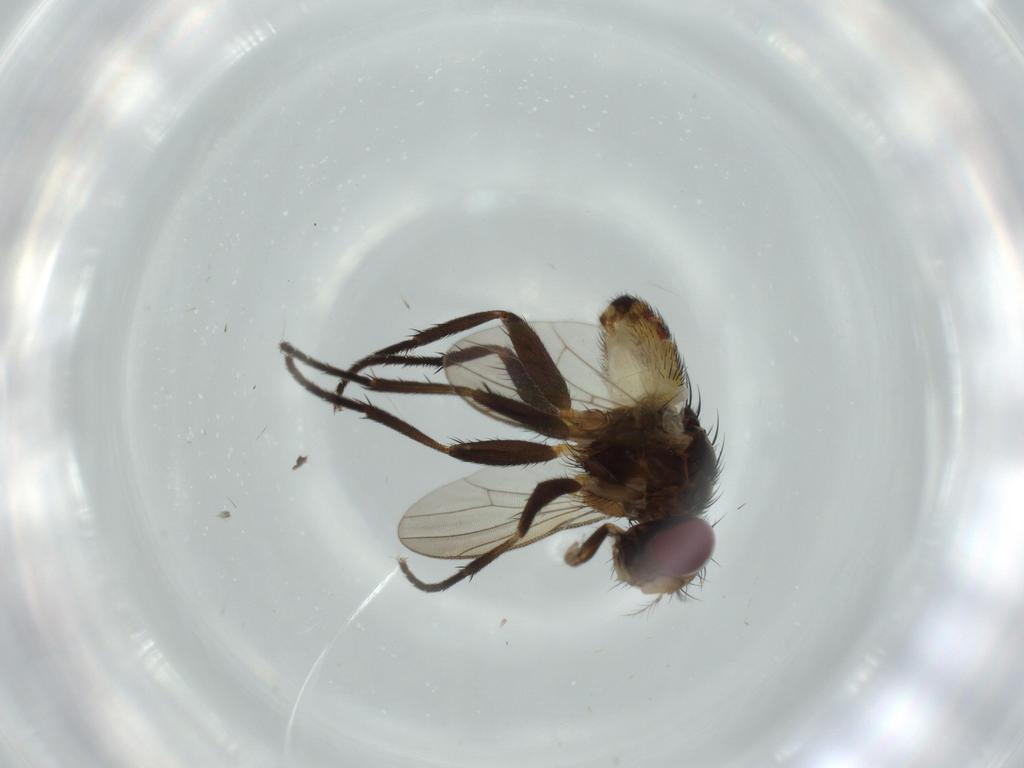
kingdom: Animalia
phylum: Arthropoda
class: Insecta
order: Diptera
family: Anthomyiidae
